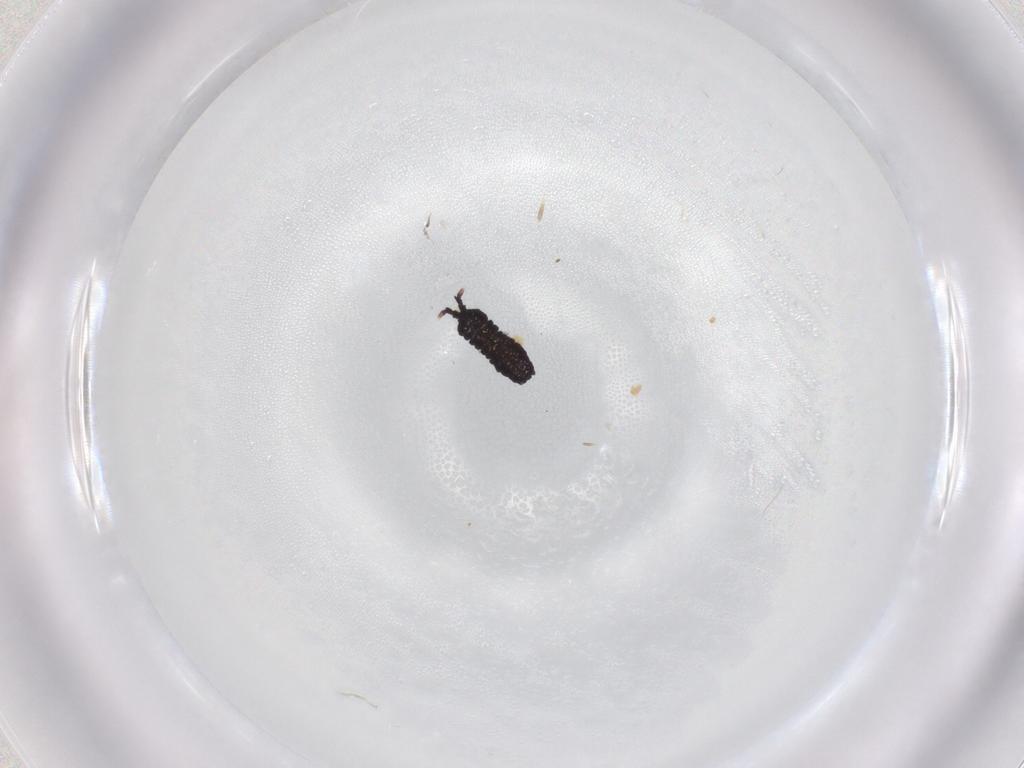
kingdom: Animalia
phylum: Arthropoda
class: Collembola
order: Poduromorpha
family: Neanuridae
